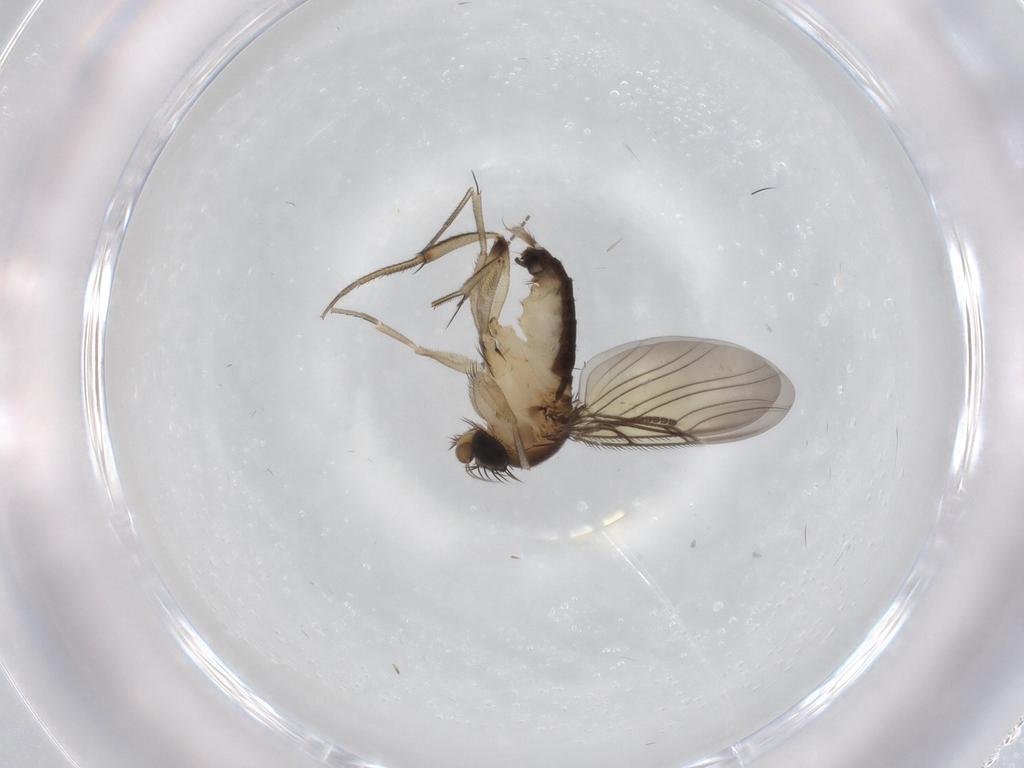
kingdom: Animalia
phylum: Arthropoda
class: Insecta
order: Diptera
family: Phoridae
